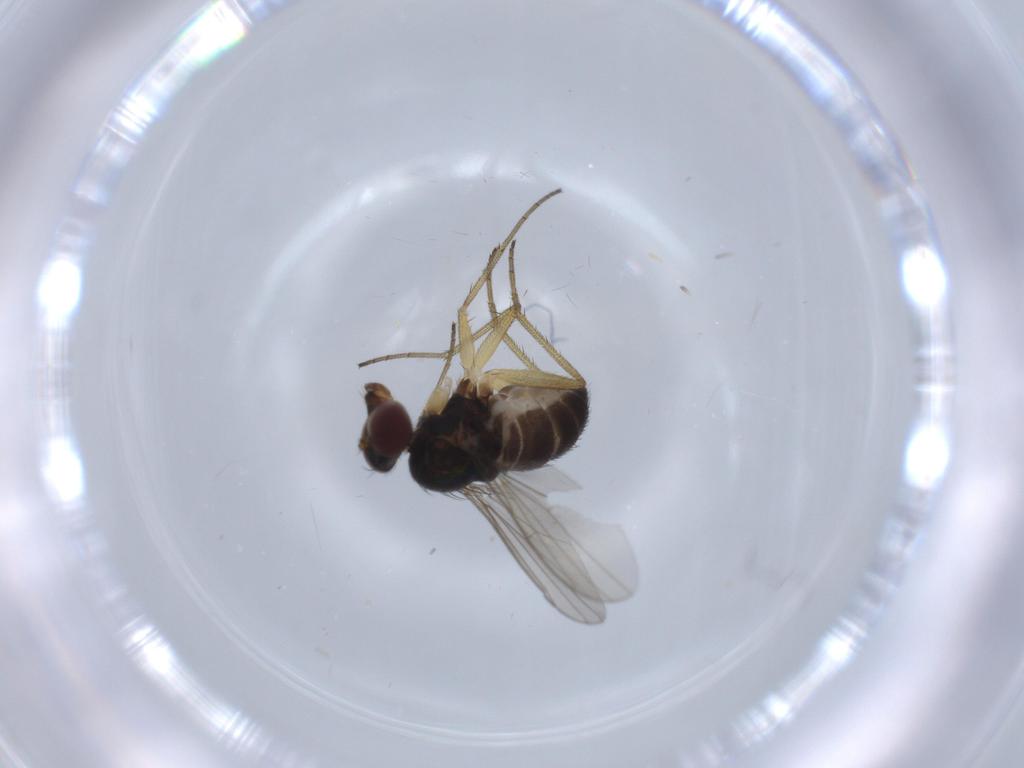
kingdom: Animalia
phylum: Arthropoda
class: Insecta
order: Diptera
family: Dolichopodidae
